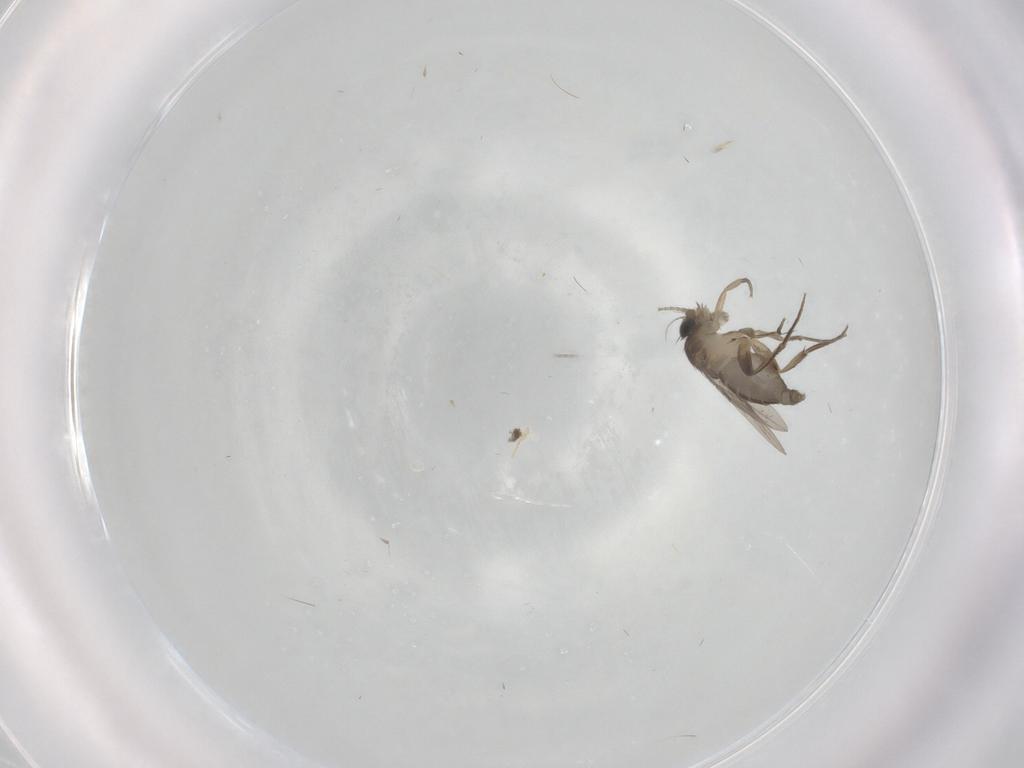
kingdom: Animalia
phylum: Arthropoda
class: Insecta
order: Diptera
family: Phoridae
